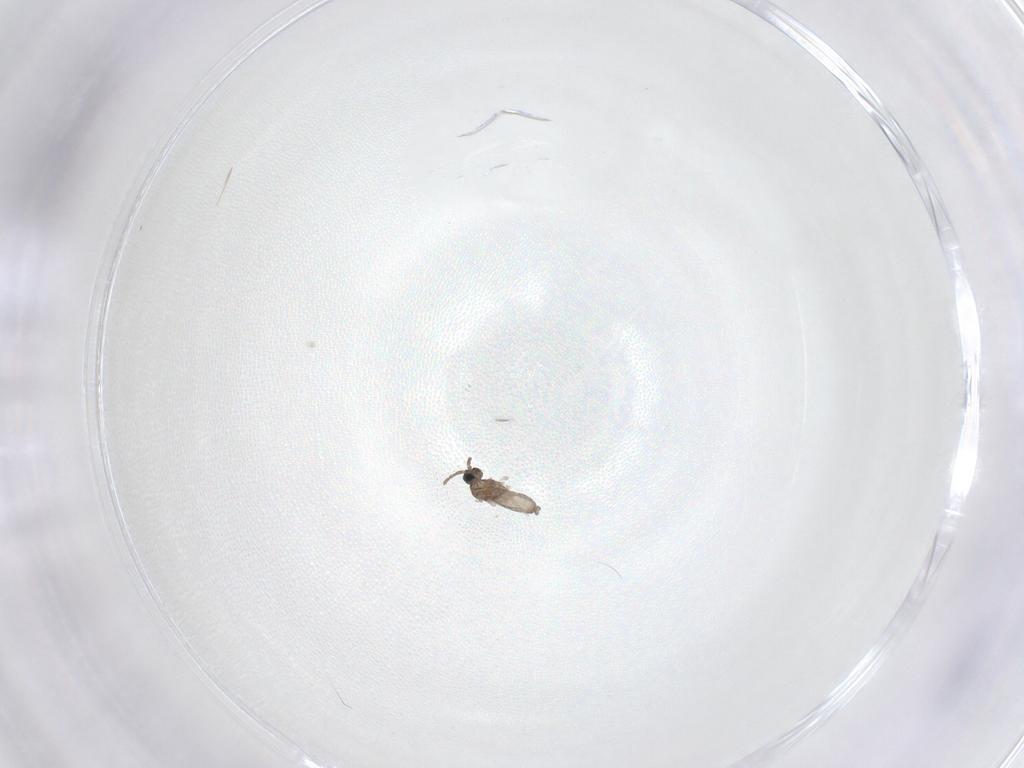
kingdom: Animalia
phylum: Arthropoda
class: Insecta
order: Diptera
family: Cecidomyiidae
